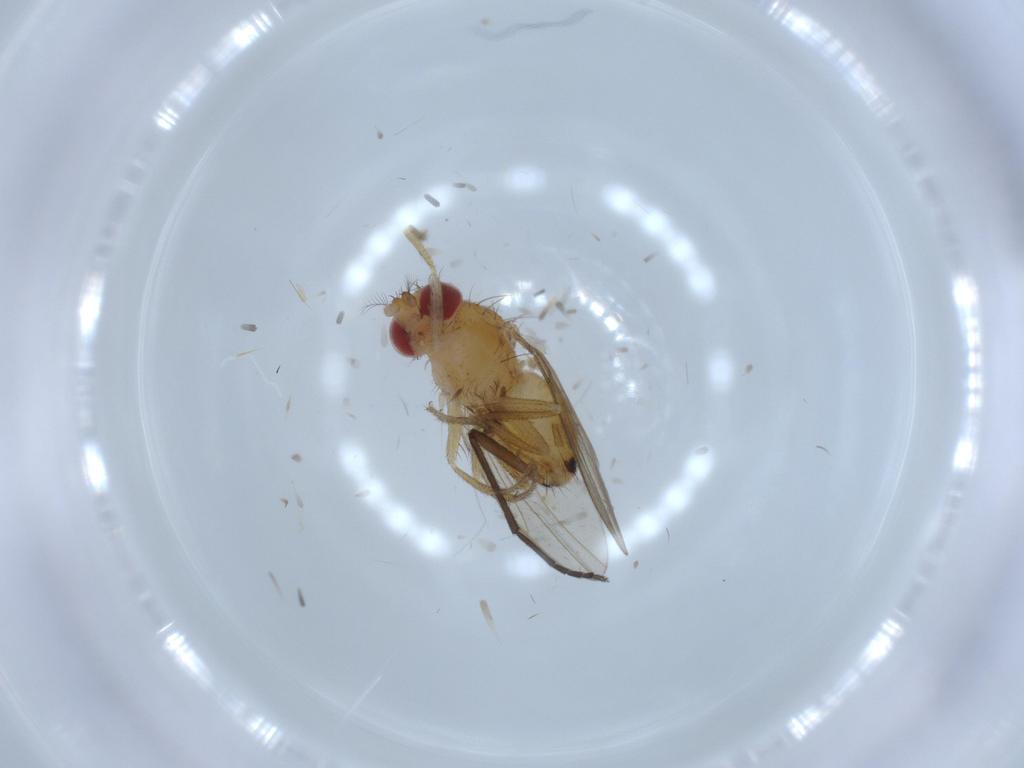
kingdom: Animalia
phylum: Arthropoda
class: Insecta
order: Diptera
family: Drosophilidae
